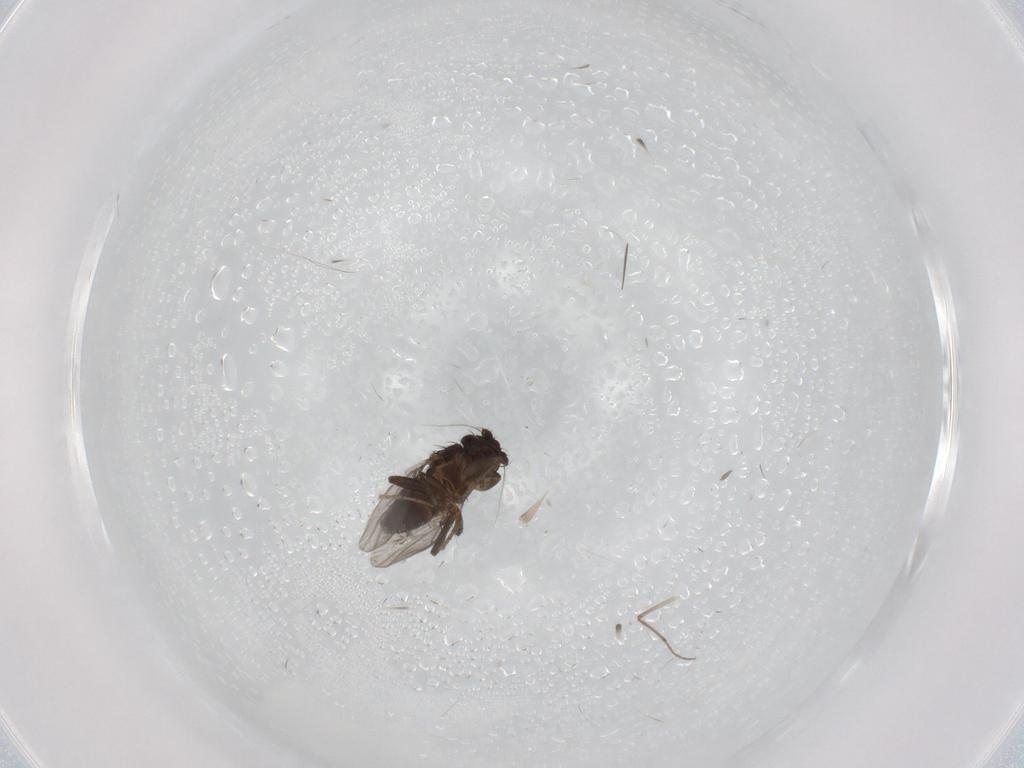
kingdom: Animalia
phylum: Arthropoda
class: Insecta
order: Diptera
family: Sphaeroceridae
